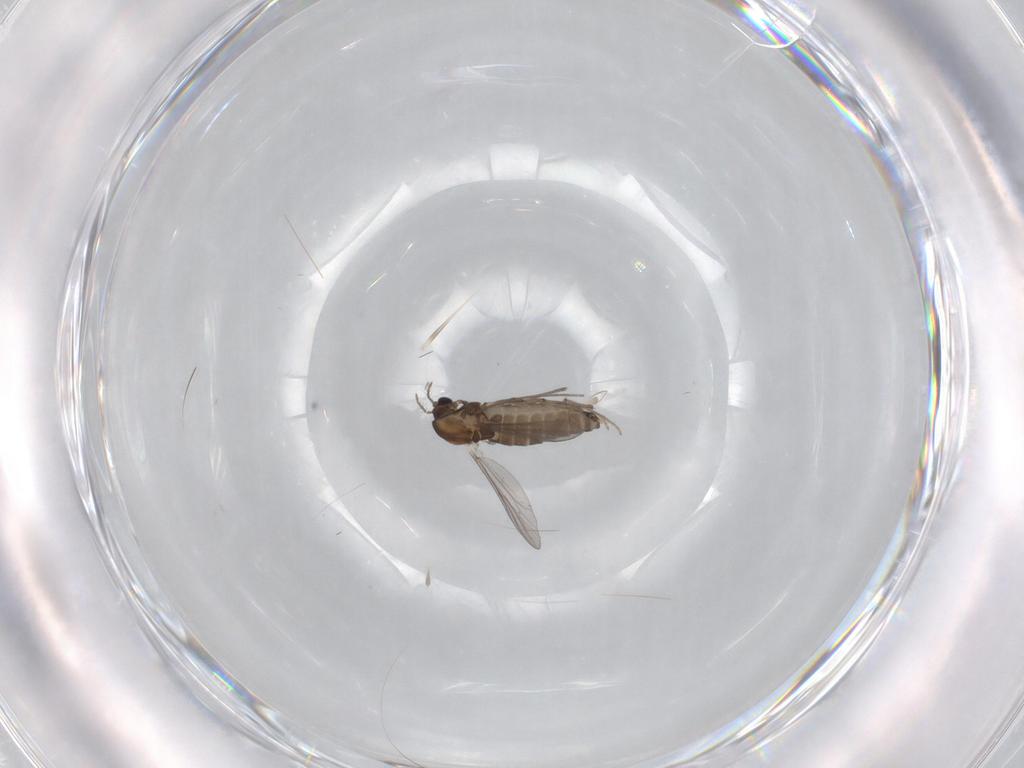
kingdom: Animalia
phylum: Arthropoda
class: Insecta
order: Diptera
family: Chironomidae
